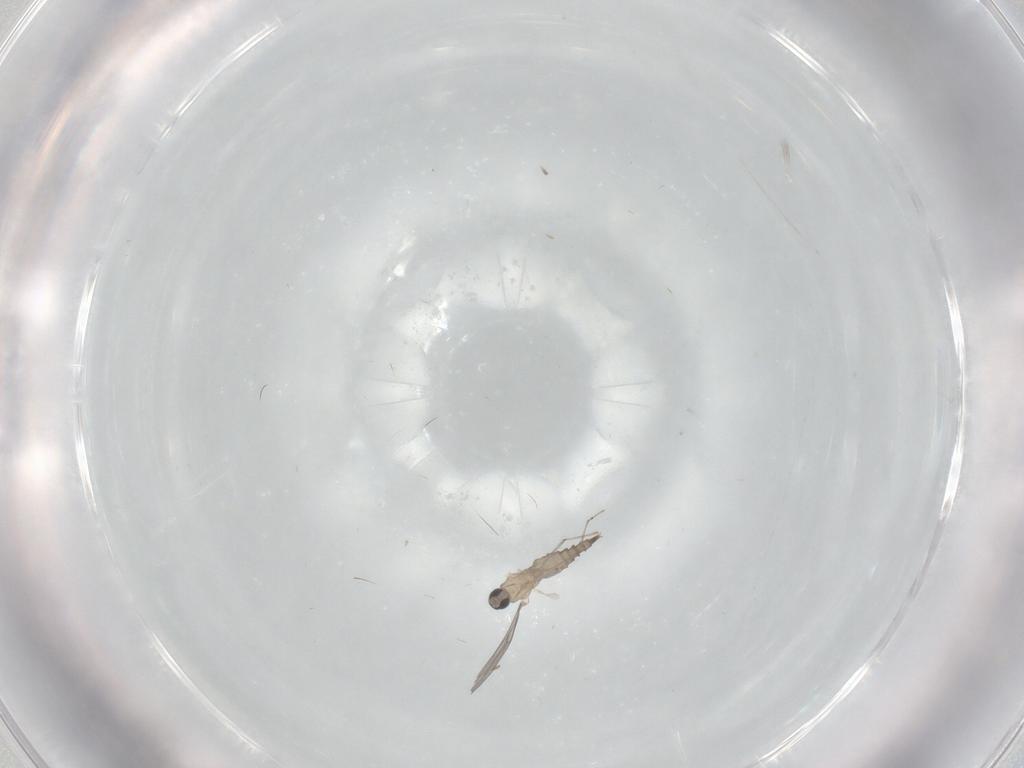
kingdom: Animalia
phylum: Arthropoda
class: Insecta
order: Diptera
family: Cecidomyiidae
